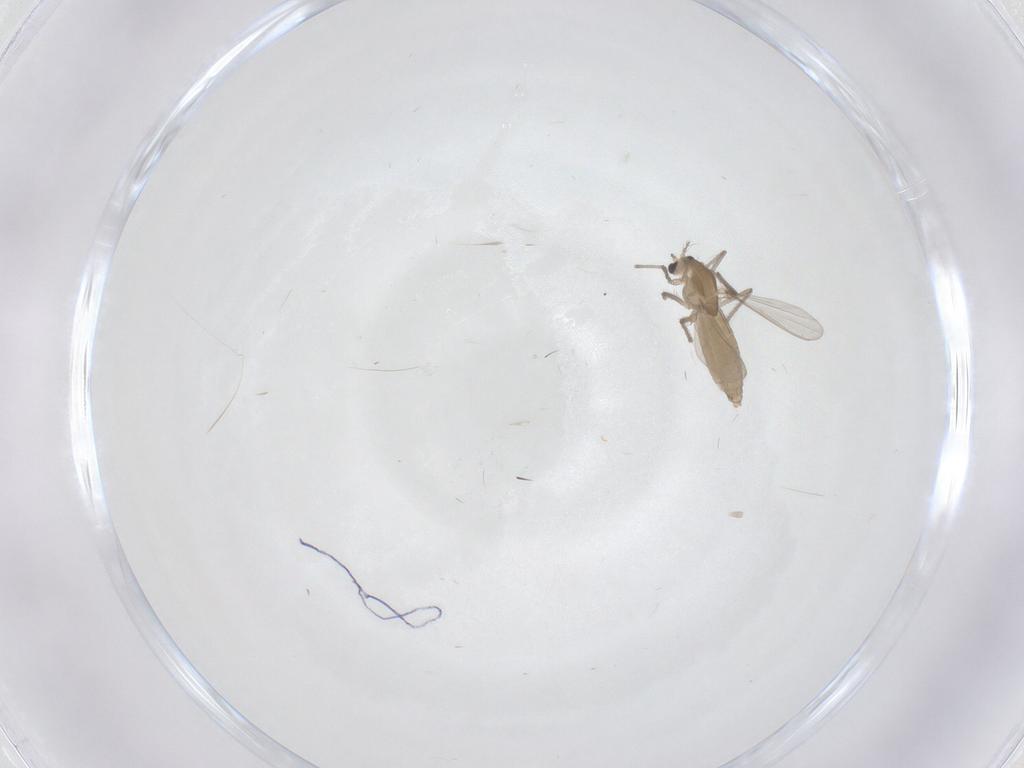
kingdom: Animalia
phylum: Arthropoda
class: Insecta
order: Diptera
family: Chironomidae
